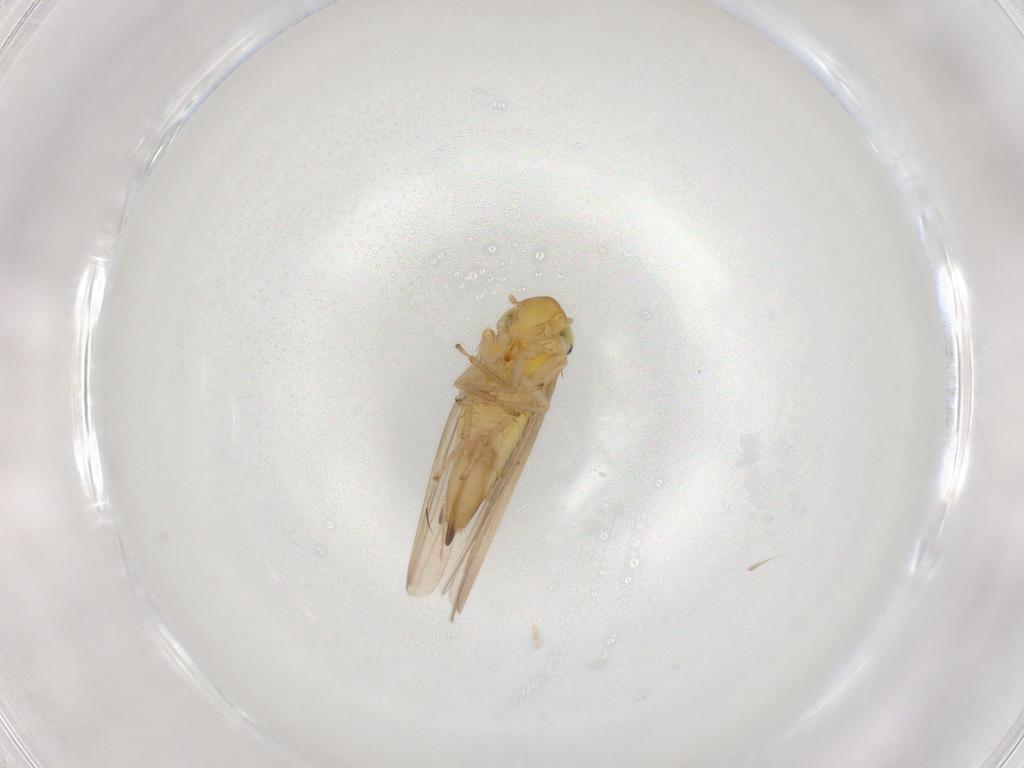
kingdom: Animalia
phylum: Arthropoda
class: Insecta
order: Hemiptera
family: Cicadellidae
